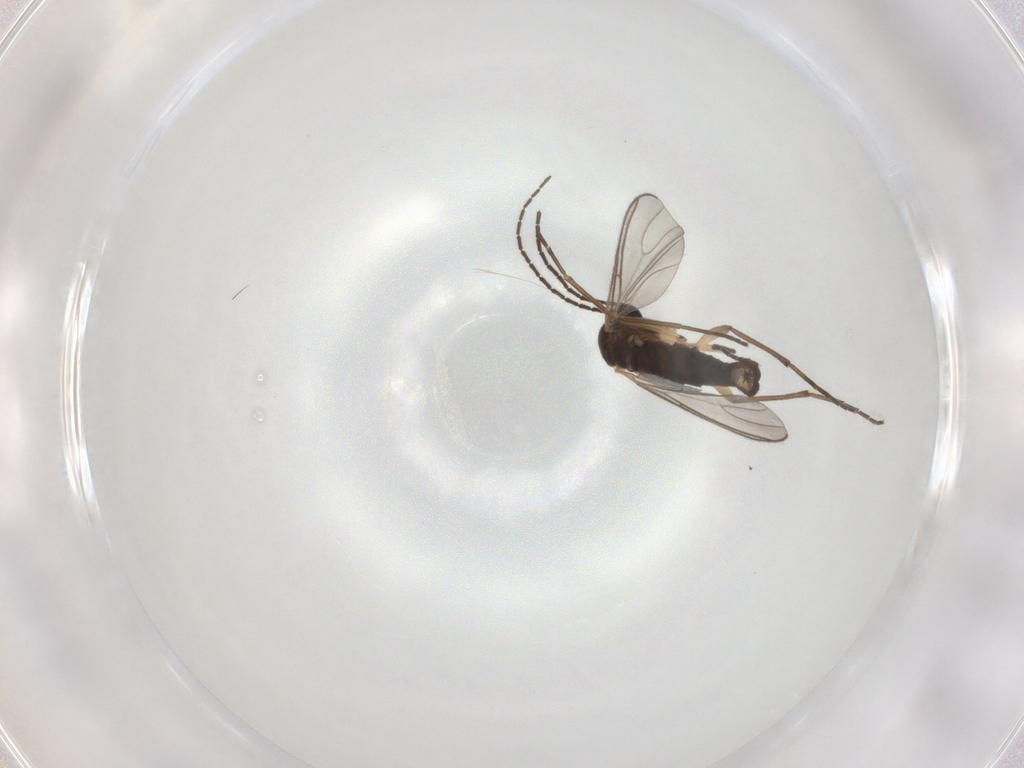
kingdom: Animalia
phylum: Arthropoda
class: Insecta
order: Diptera
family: Sciaridae
